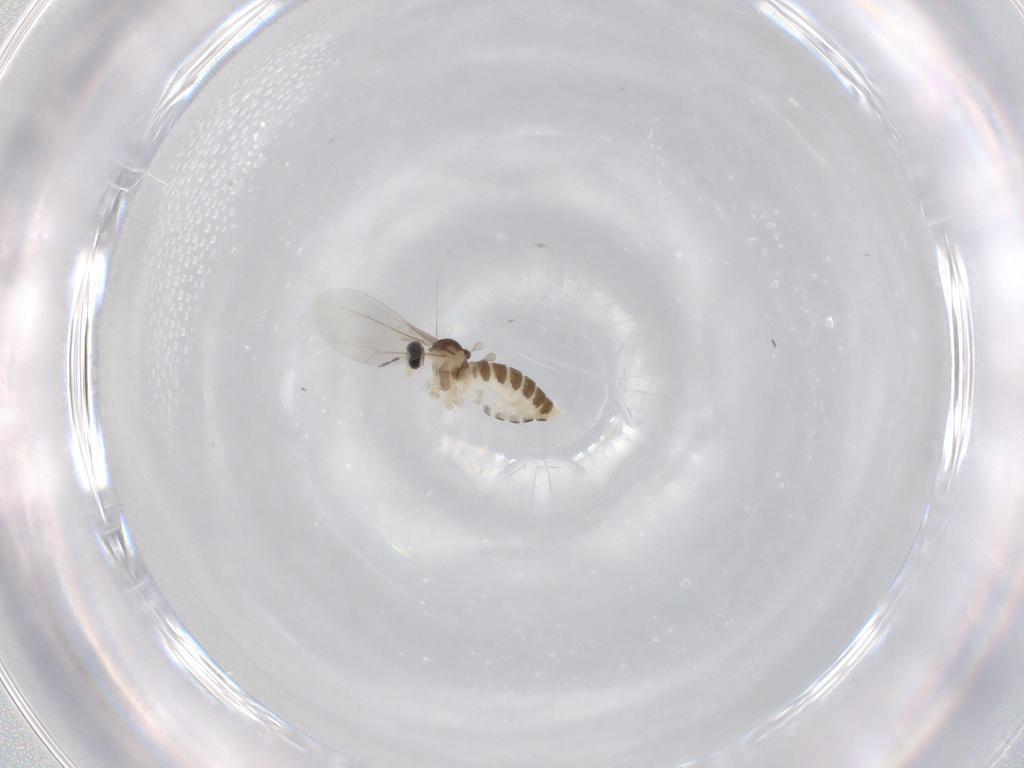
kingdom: Animalia
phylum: Arthropoda
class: Insecta
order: Diptera
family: Cecidomyiidae
